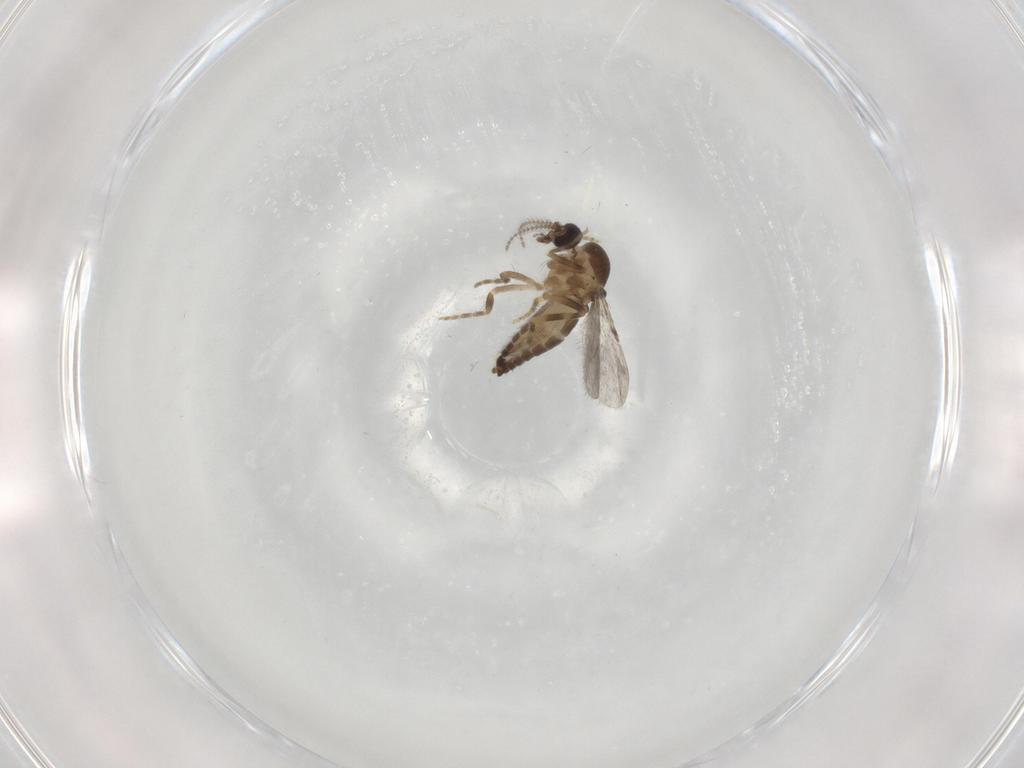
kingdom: Animalia
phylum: Arthropoda
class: Insecta
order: Diptera
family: Ceratopogonidae
